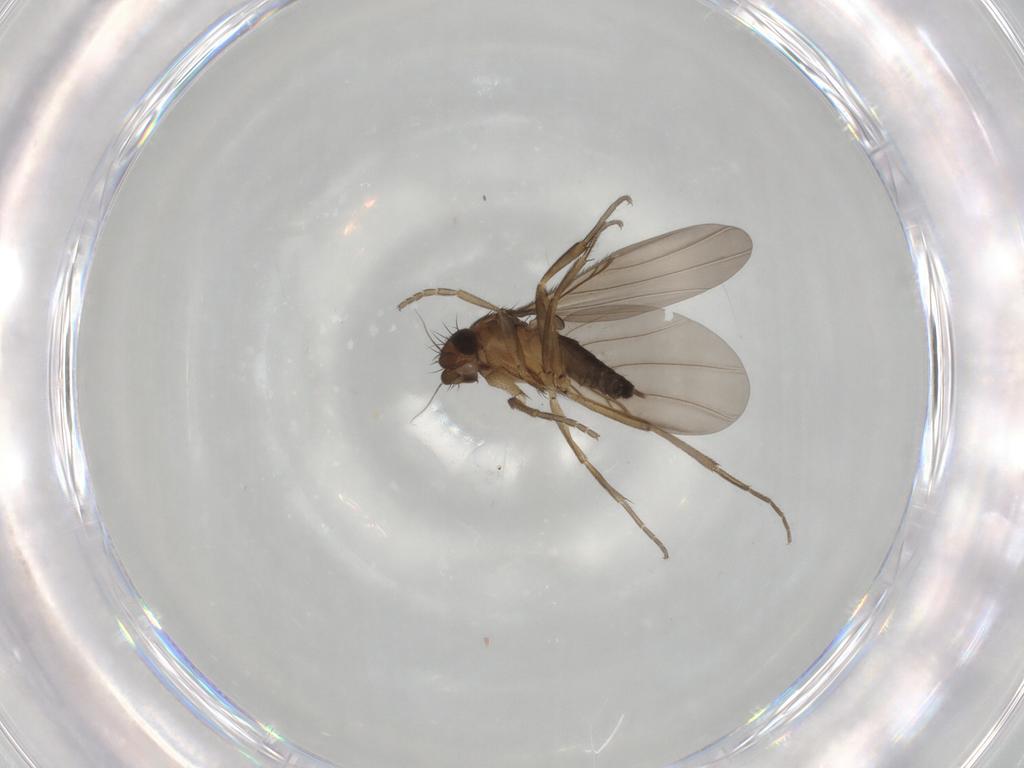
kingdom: Animalia
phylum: Arthropoda
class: Insecta
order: Diptera
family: Phoridae
